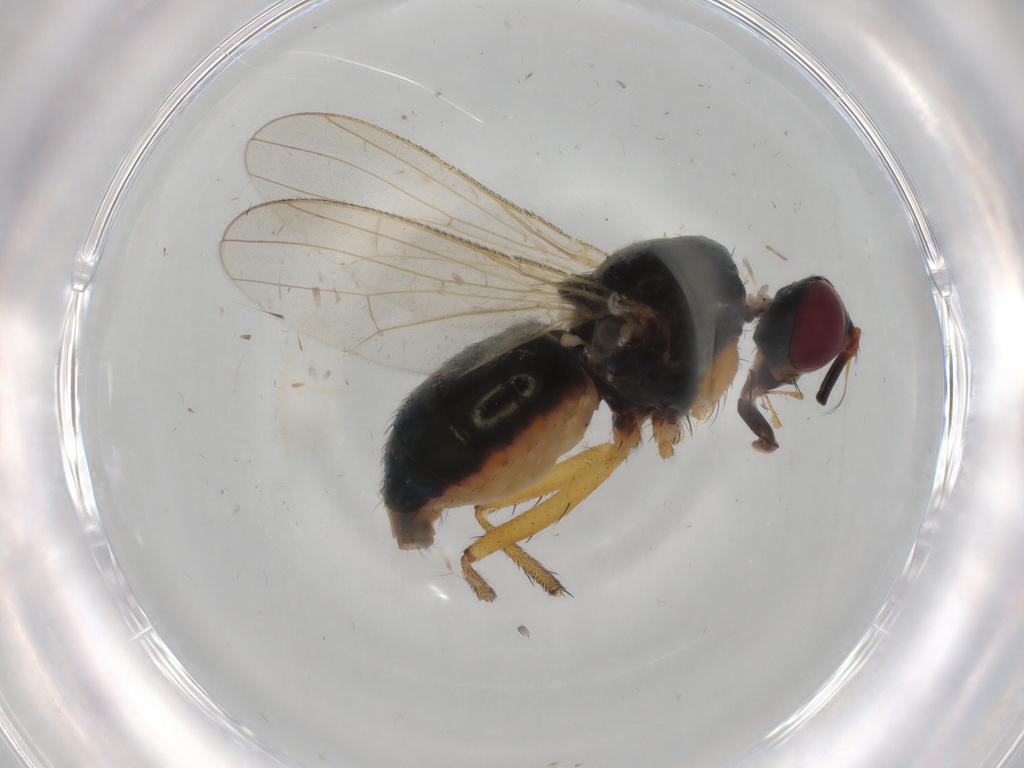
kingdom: Animalia
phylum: Arthropoda
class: Insecta
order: Diptera
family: Muscidae
